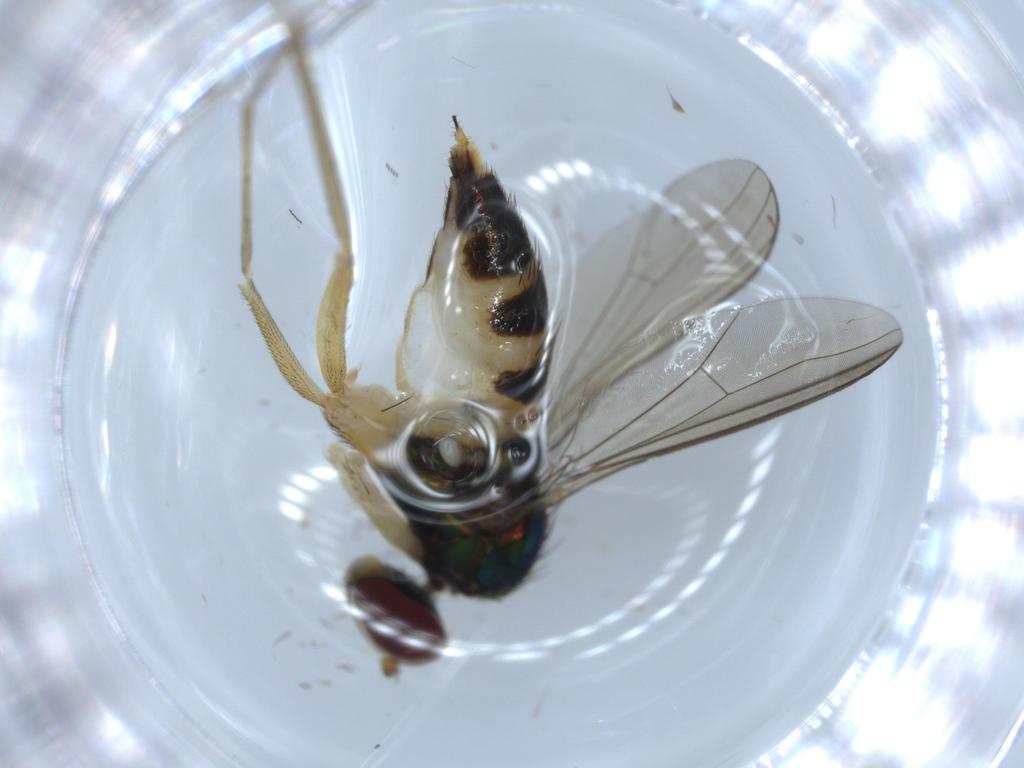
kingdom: Animalia
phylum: Arthropoda
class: Insecta
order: Diptera
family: Dolichopodidae
